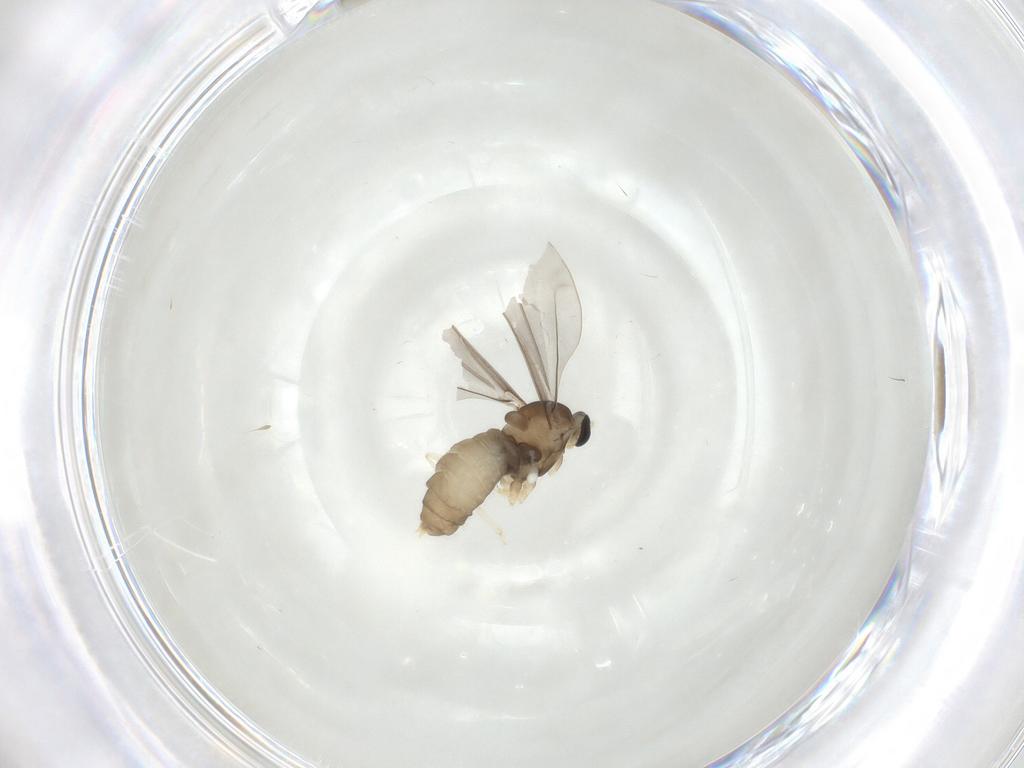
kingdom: Animalia
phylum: Arthropoda
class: Insecta
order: Diptera
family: Cecidomyiidae
